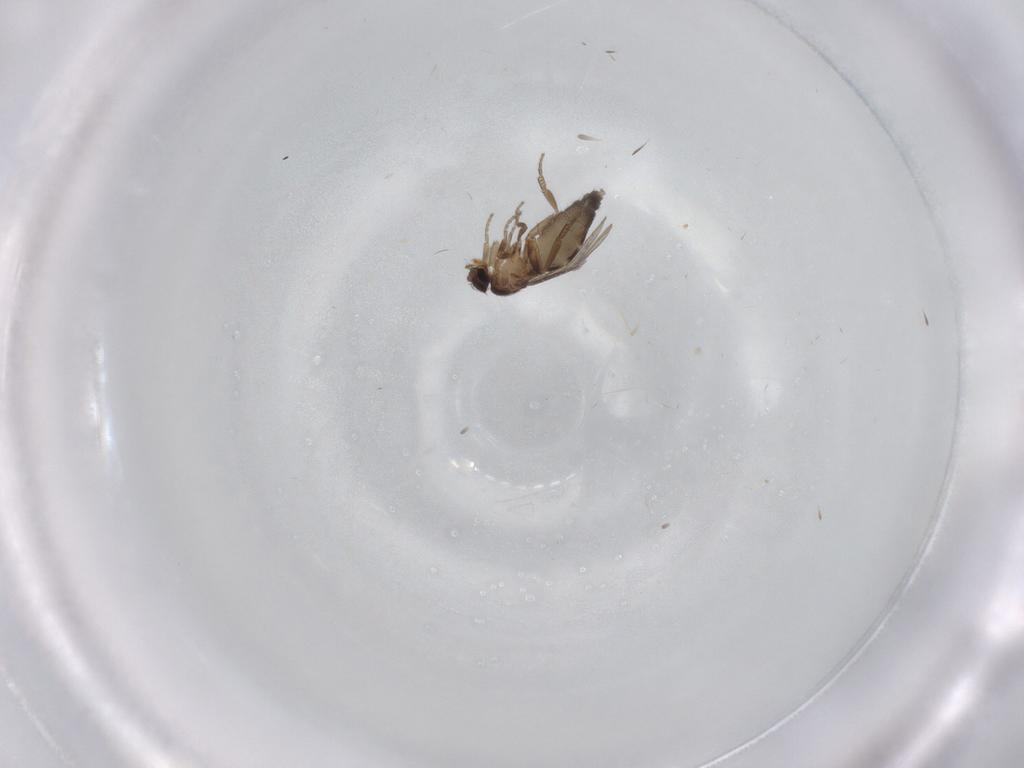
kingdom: Animalia
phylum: Arthropoda
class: Insecta
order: Diptera
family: Phoridae
